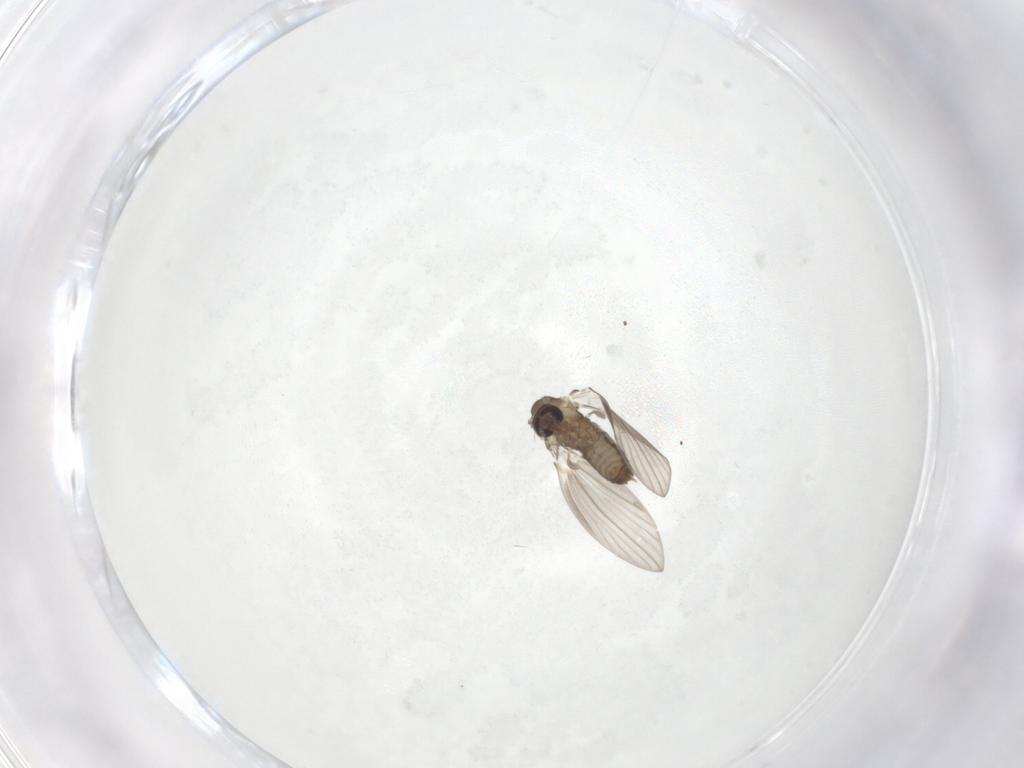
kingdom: Animalia
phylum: Arthropoda
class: Insecta
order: Diptera
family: Psychodidae
